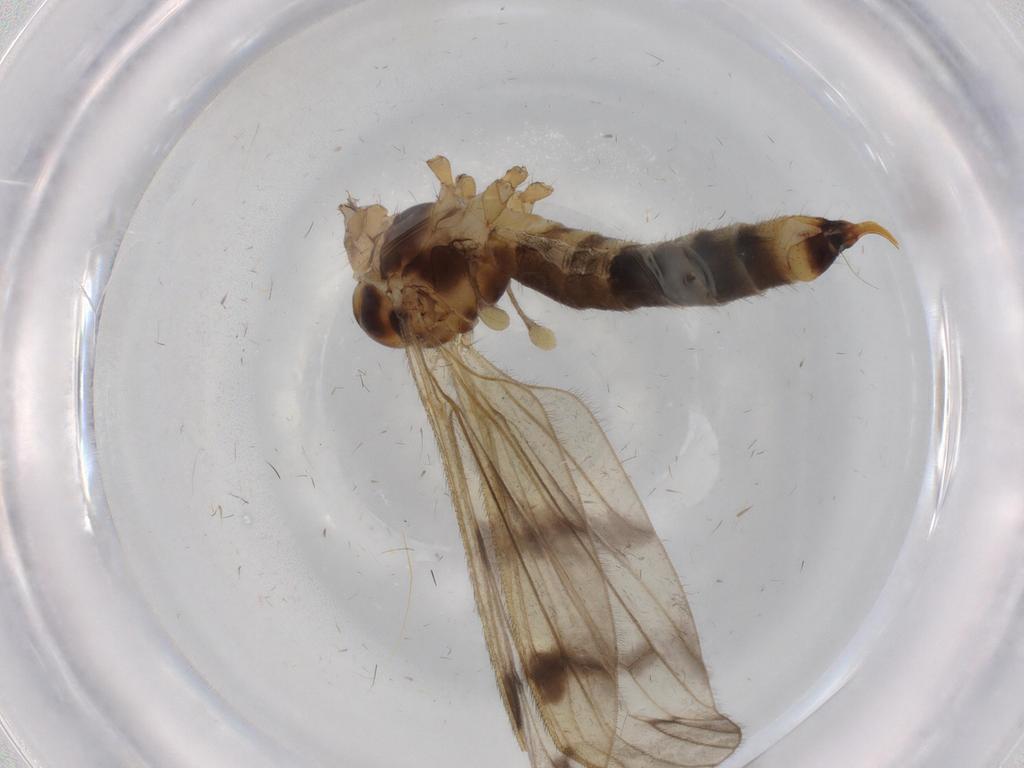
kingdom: Animalia
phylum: Arthropoda
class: Insecta
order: Diptera
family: Limoniidae
